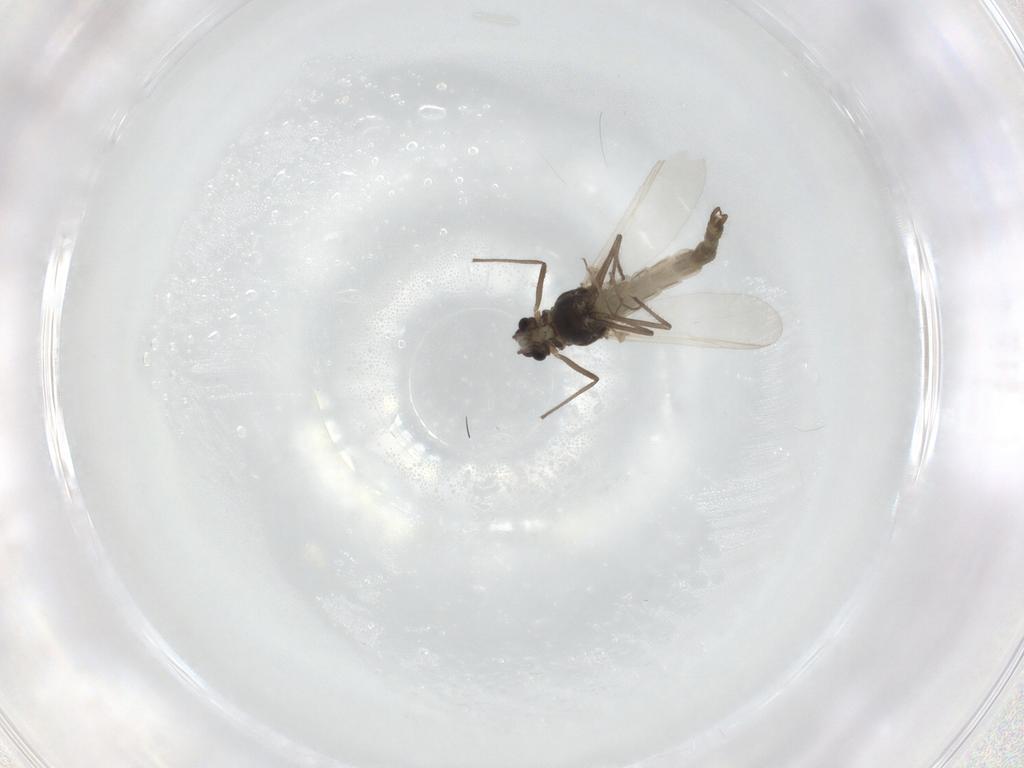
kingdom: Animalia
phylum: Arthropoda
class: Insecta
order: Diptera
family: Chironomidae
